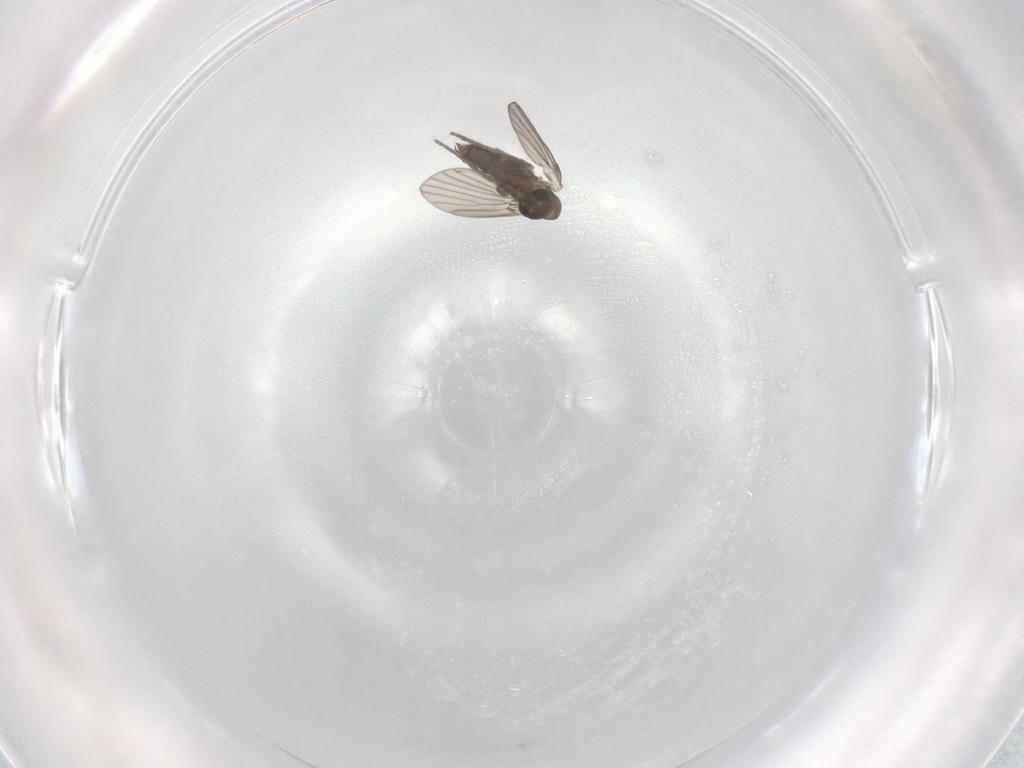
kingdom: Animalia
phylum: Arthropoda
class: Insecta
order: Diptera
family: Psychodidae
